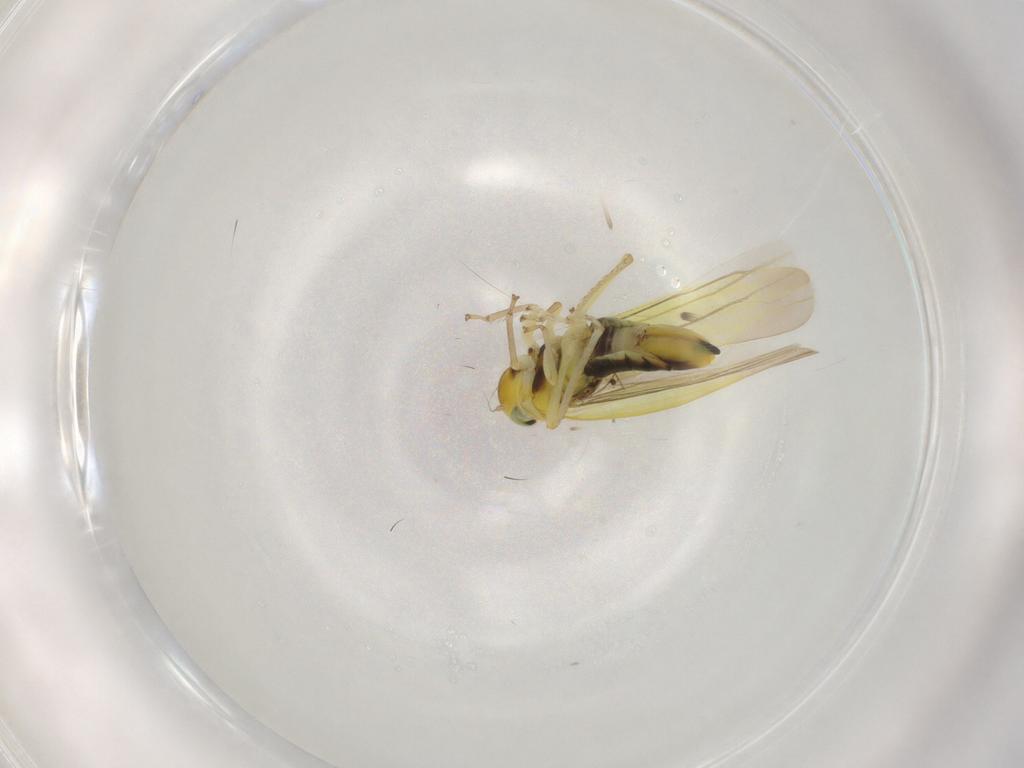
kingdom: Animalia
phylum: Arthropoda
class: Insecta
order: Hemiptera
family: Cicadellidae
